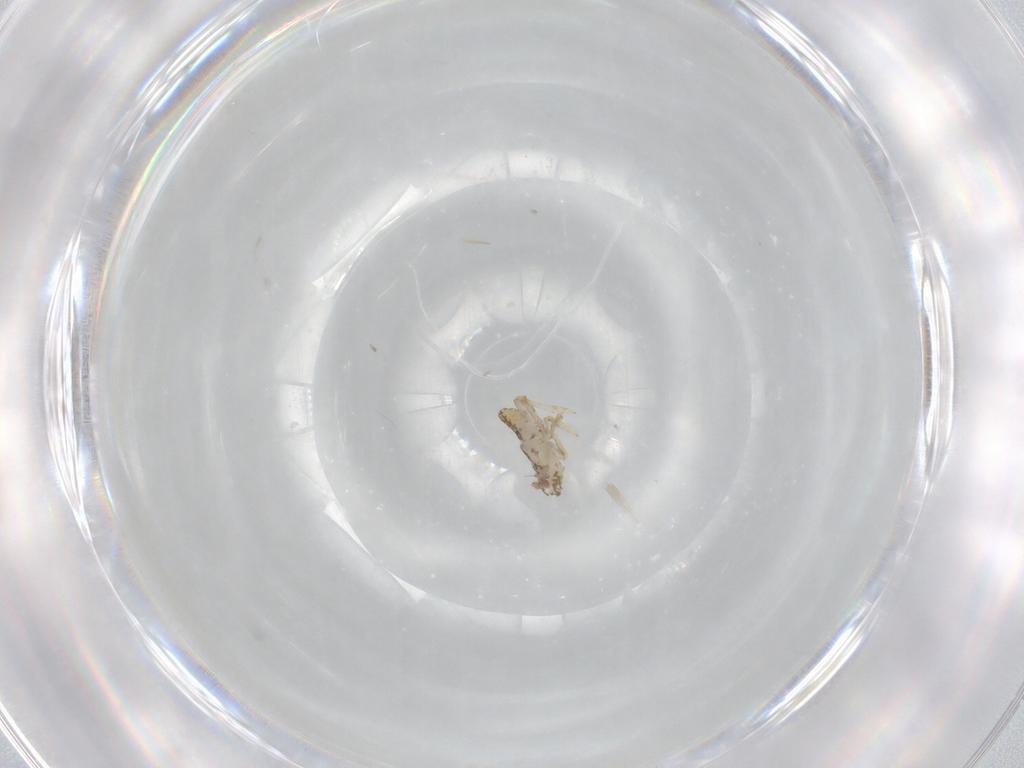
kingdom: Animalia
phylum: Arthropoda
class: Insecta
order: Hemiptera
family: Delphacidae
